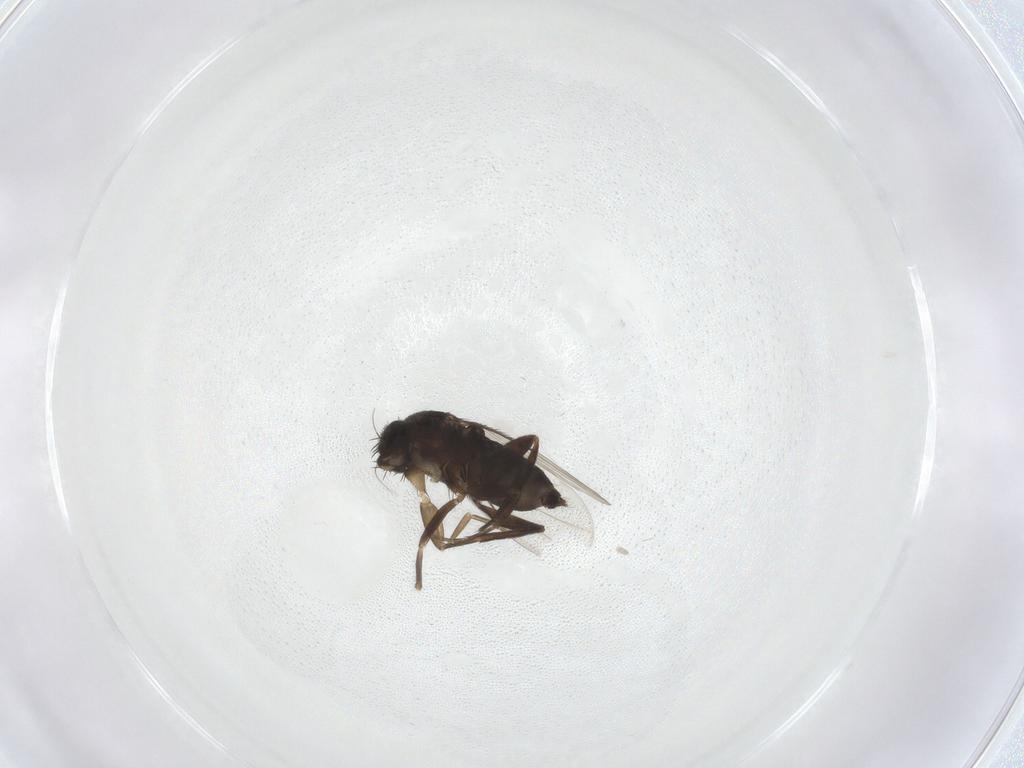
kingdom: Animalia
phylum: Arthropoda
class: Insecta
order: Diptera
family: Phoridae
